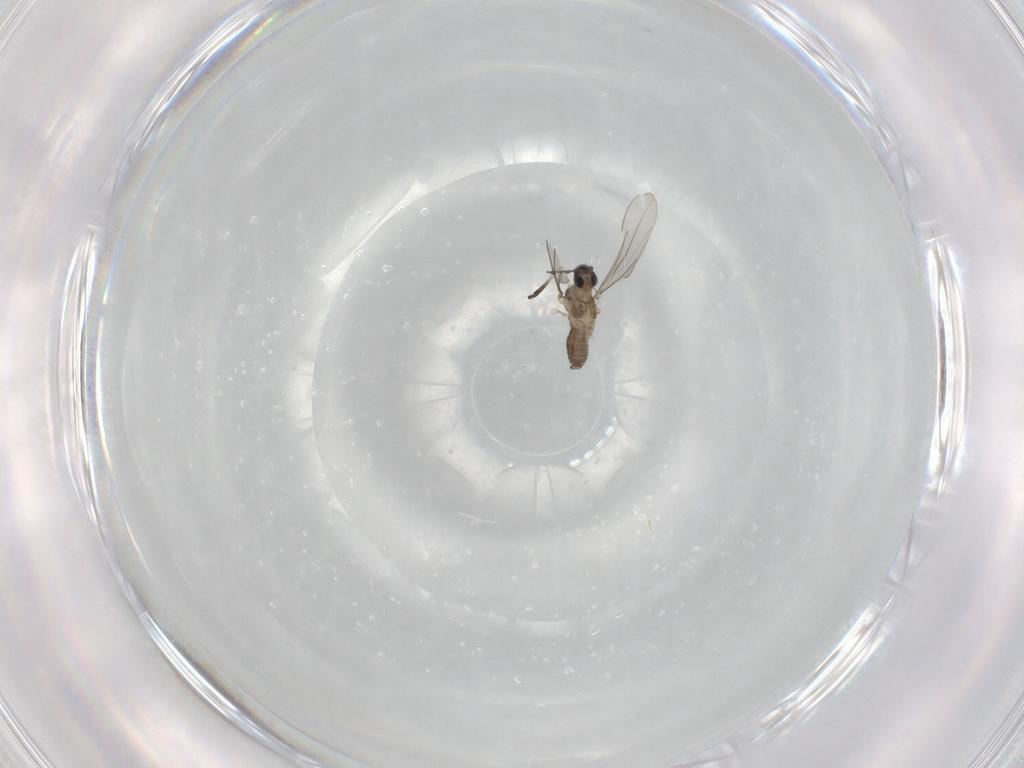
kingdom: Animalia
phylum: Arthropoda
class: Insecta
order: Diptera
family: Cecidomyiidae
